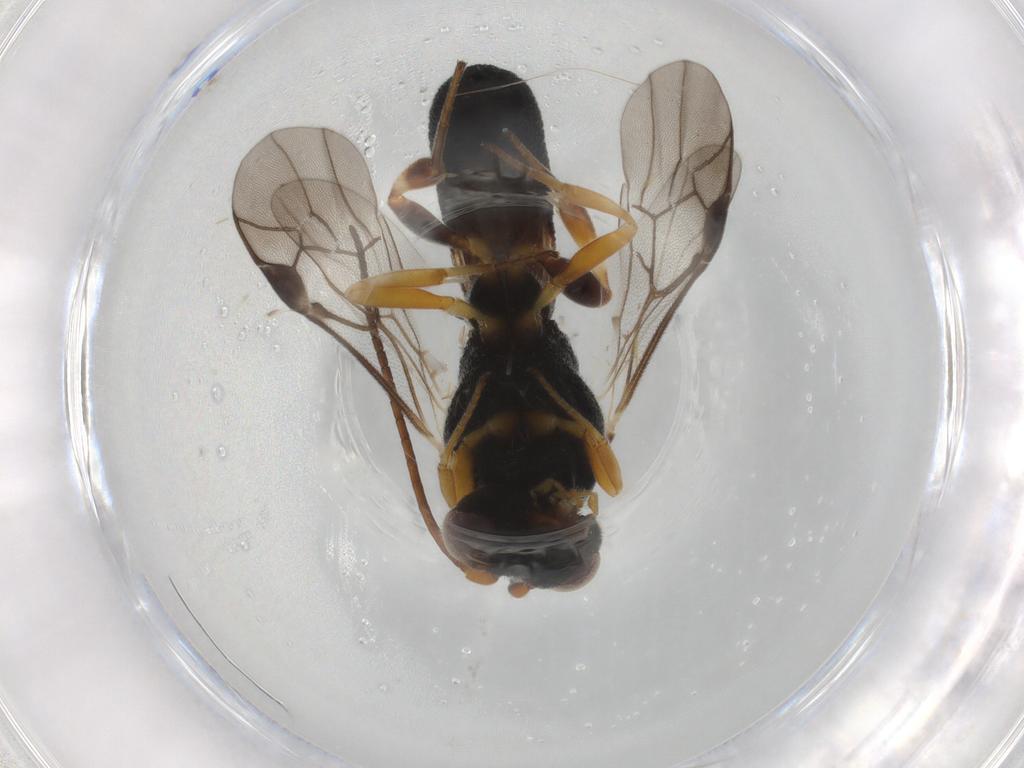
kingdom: Animalia
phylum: Arthropoda
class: Insecta
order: Hymenoptera
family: Braconidae
